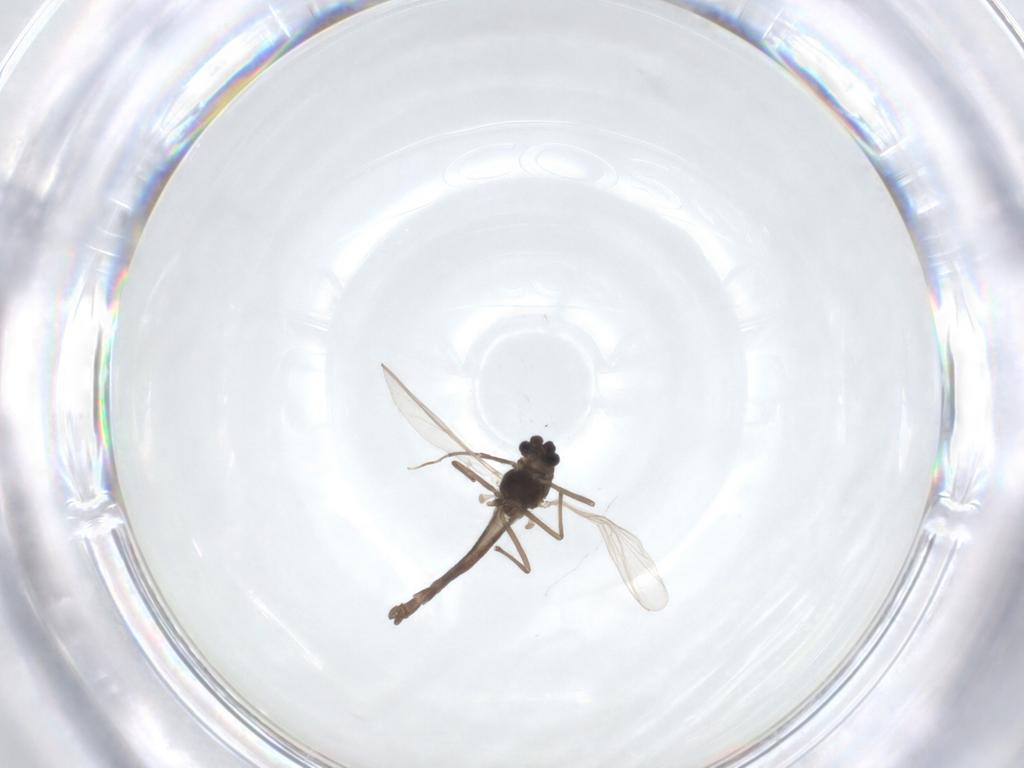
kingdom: Animalia
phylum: Arthropoda
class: Insecta
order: Diptera
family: Chironomidae
